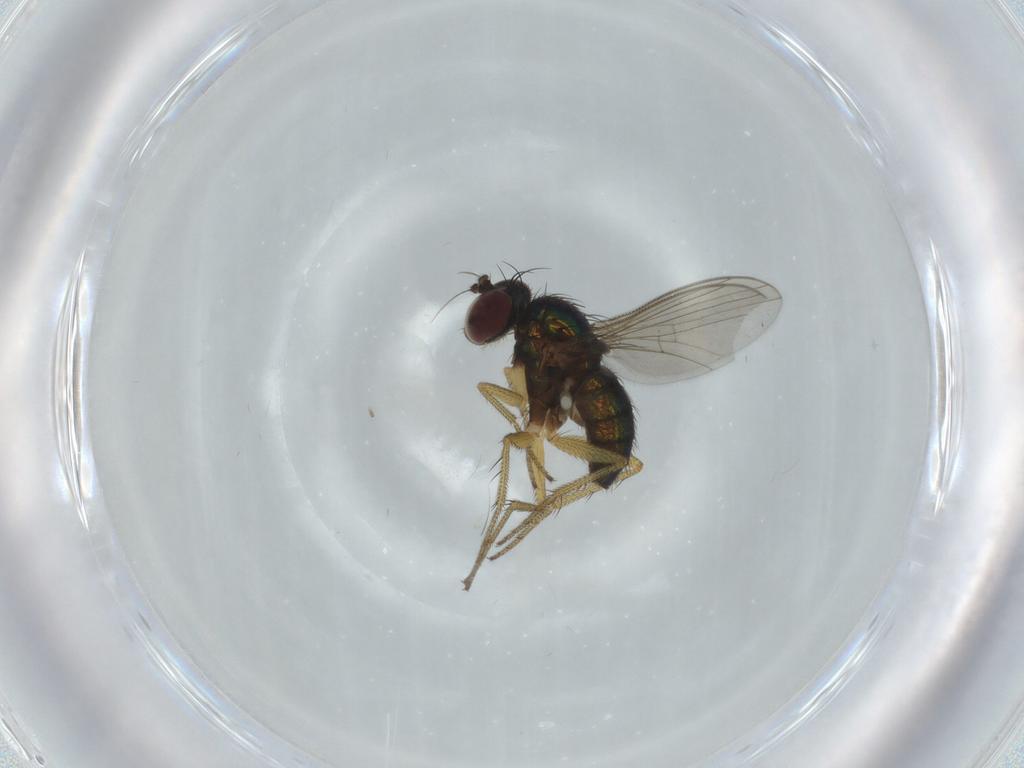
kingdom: Animalia
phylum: Arthropoda
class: Insecta
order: Diptera
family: Dolichopodidae
